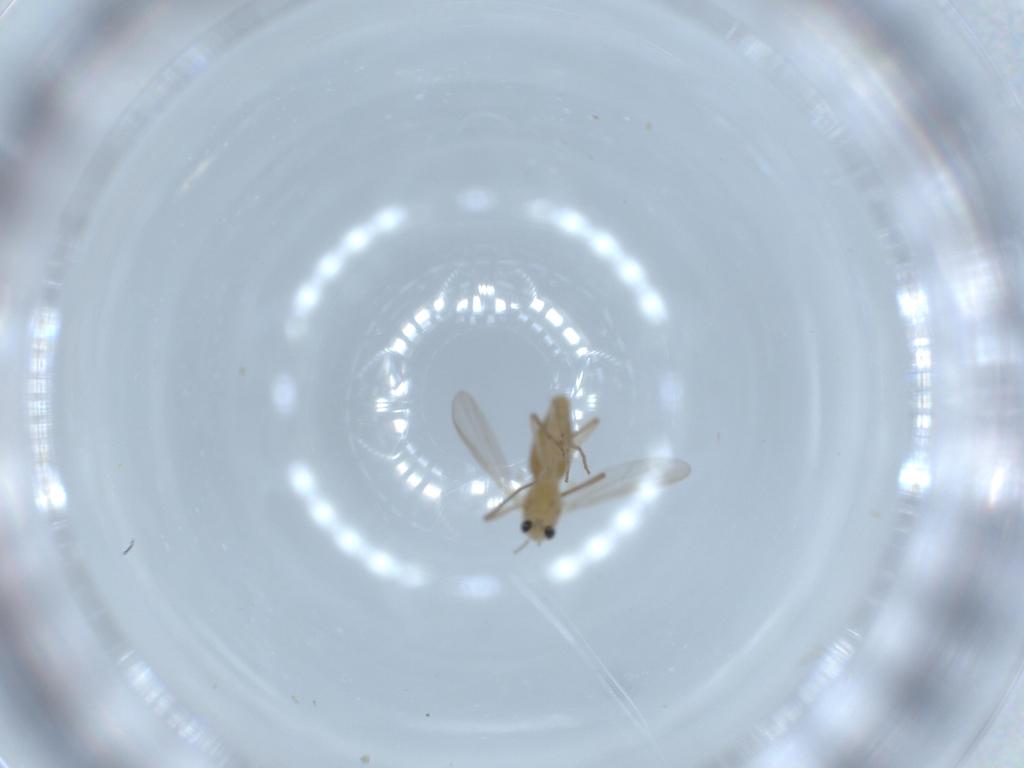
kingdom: Animalia
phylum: Arthropoda
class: Insecta
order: Diptera
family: Chironomidae
